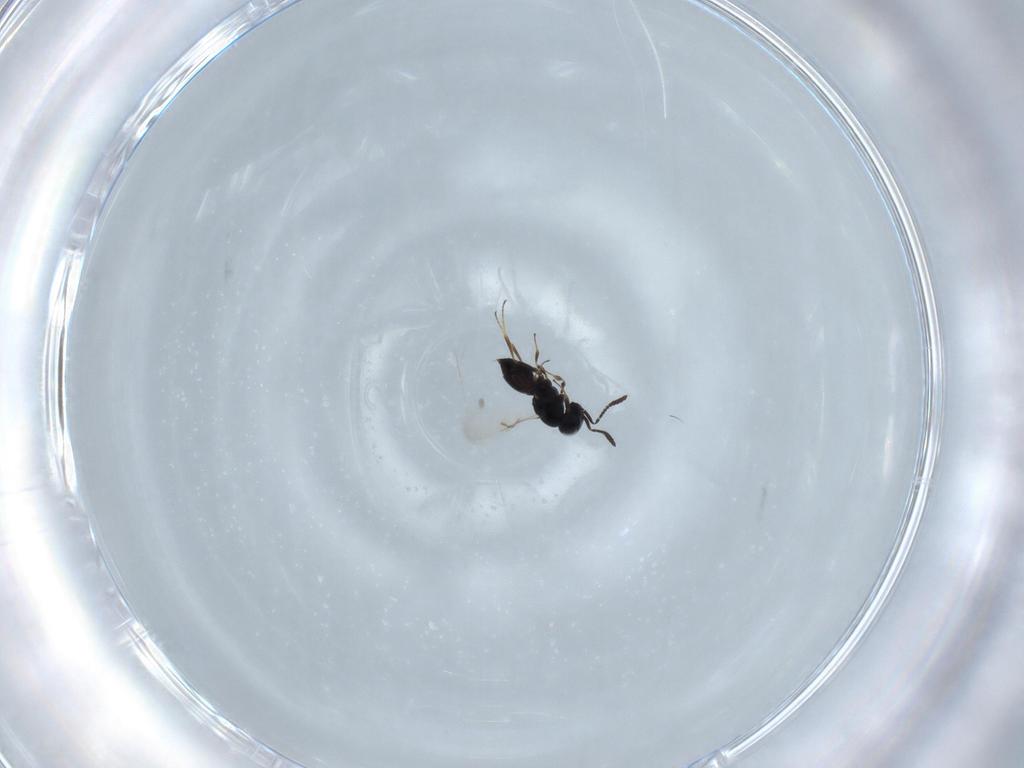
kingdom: Animalia
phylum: Arthropoda
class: Insecta
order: Hymenoptera
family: Scelionidae
